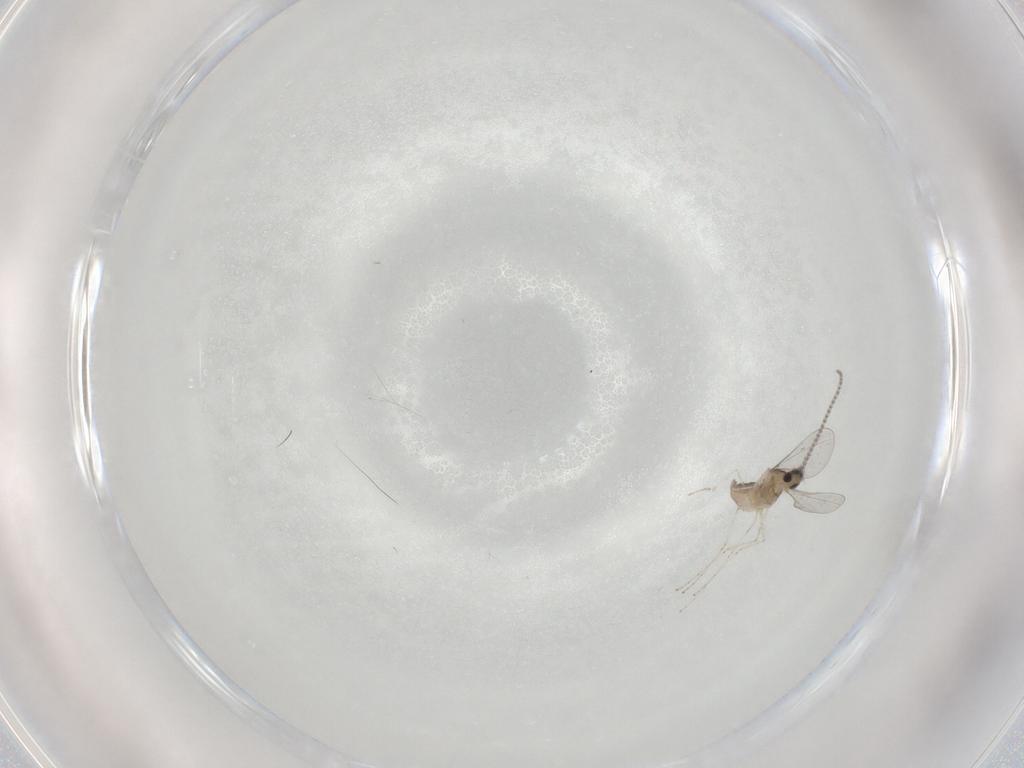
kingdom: Animalia
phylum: Arthropoda
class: Insecta
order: Diptera
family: Cecidomyiidae
